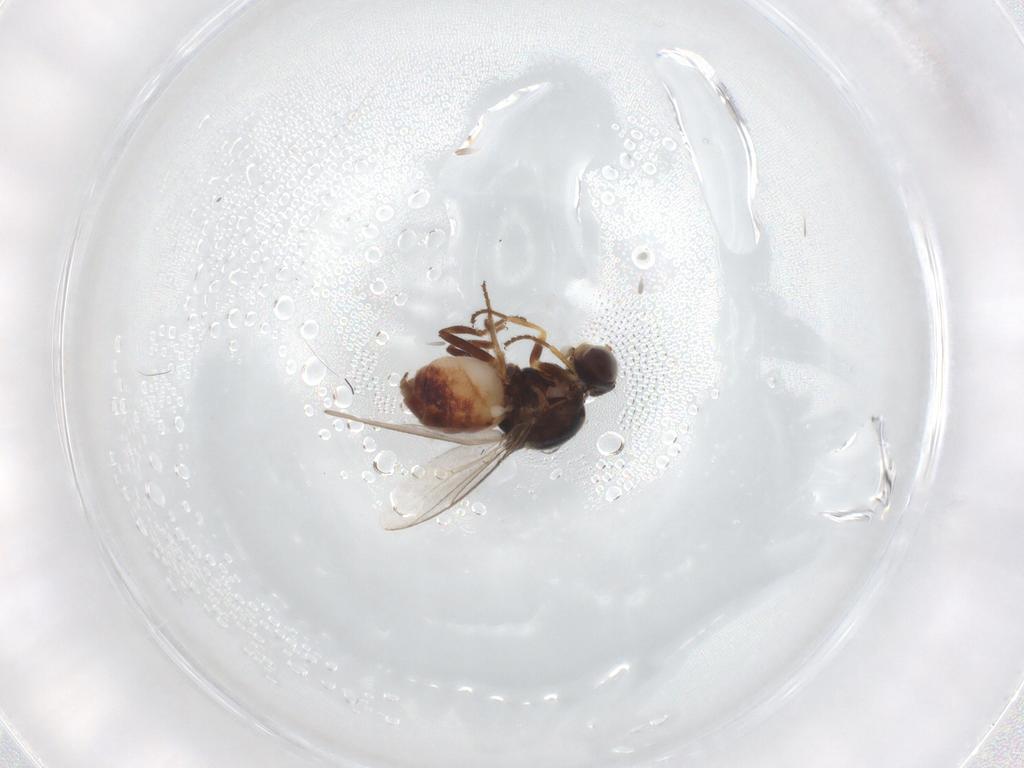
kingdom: Animalia
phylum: Arthropoda
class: Insecta
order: Diptera
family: Chloropidae
